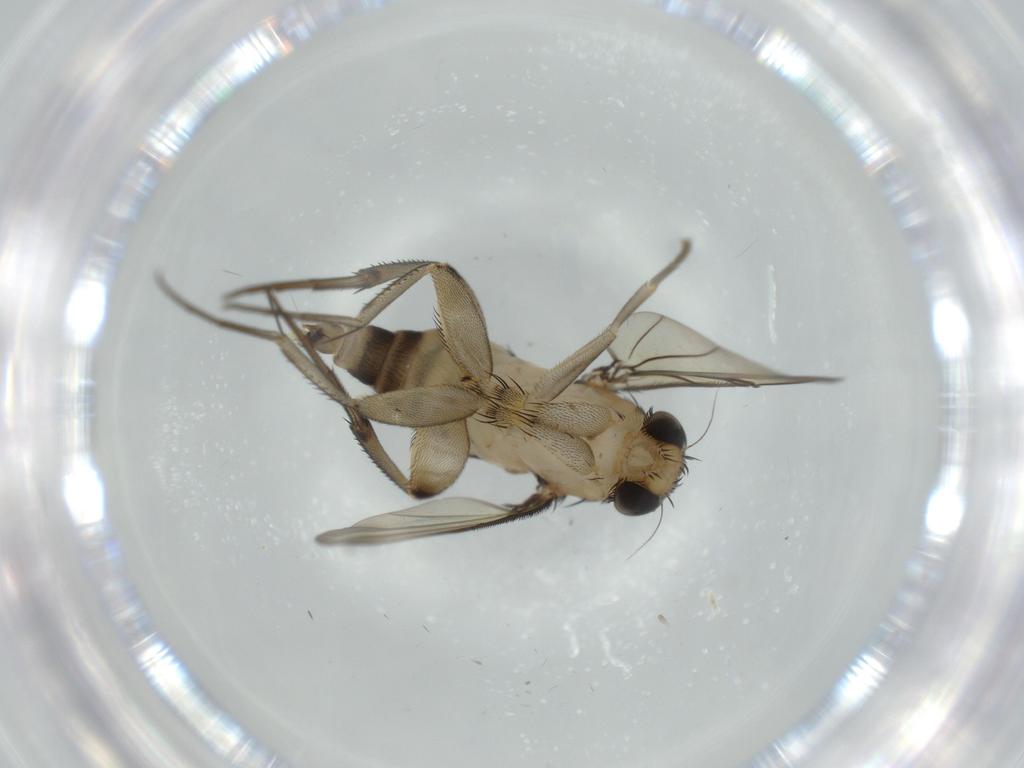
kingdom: Animalia
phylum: Arthropoda
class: Insecta
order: Diptera
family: Phoridae
